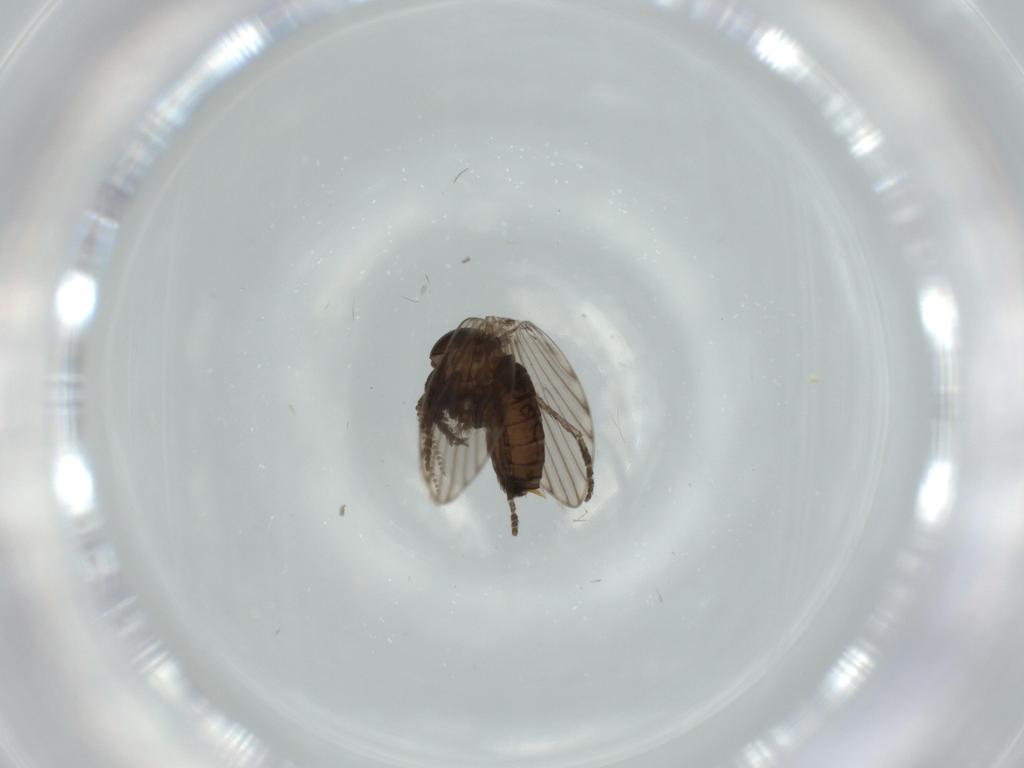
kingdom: Animalia
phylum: Arthropoda
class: Insecta
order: Diptera
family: Psychodidae
